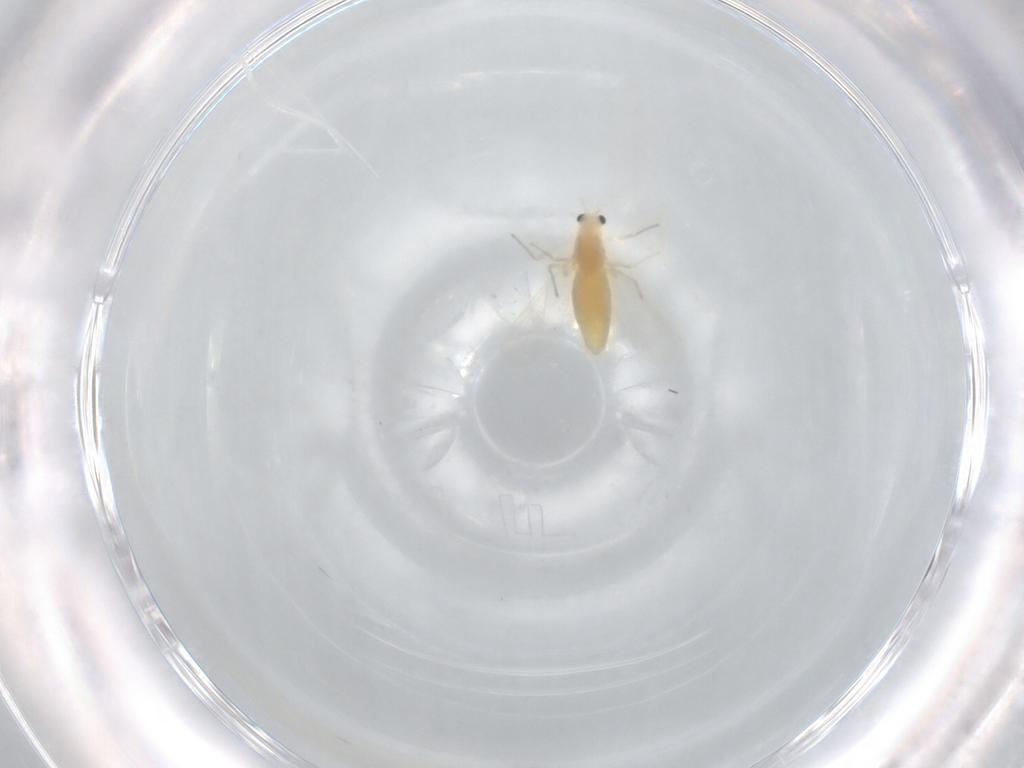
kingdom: Animalia
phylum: Arthropoda
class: Insecta
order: Diptera
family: Chironomidae
